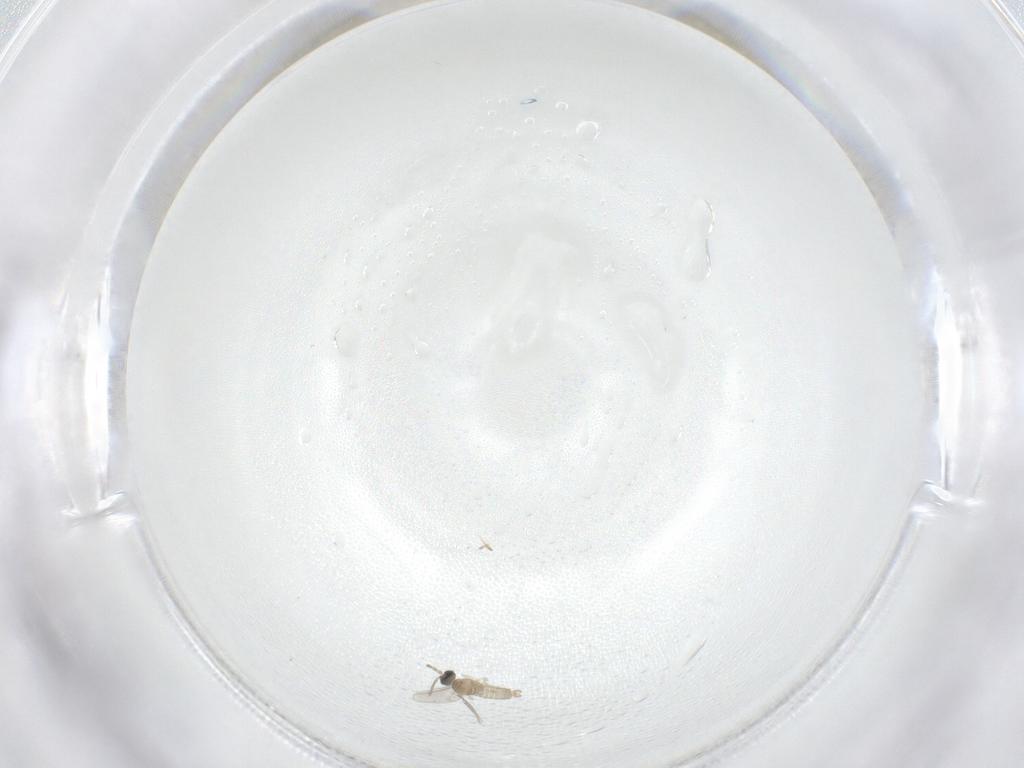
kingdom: Animalia
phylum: Arthropoda
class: Insecta
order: Diptera
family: Cecidomyiidae
